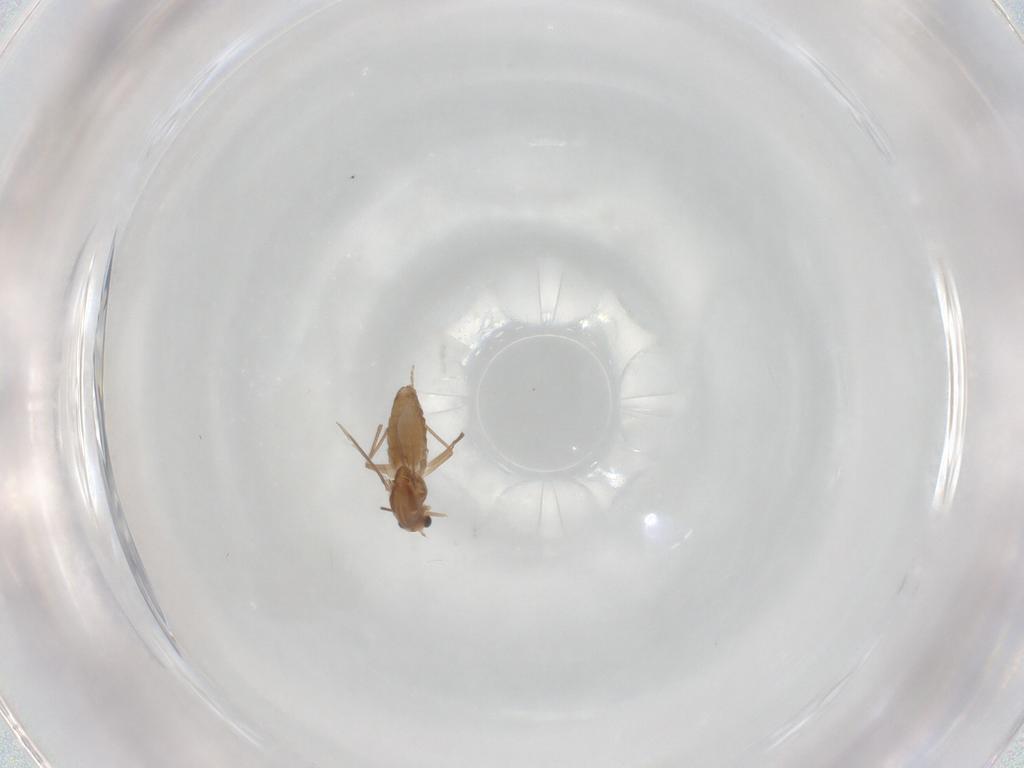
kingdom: Animalia
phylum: Arthropoda
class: Insecta
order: Diptera
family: Chironomidae
